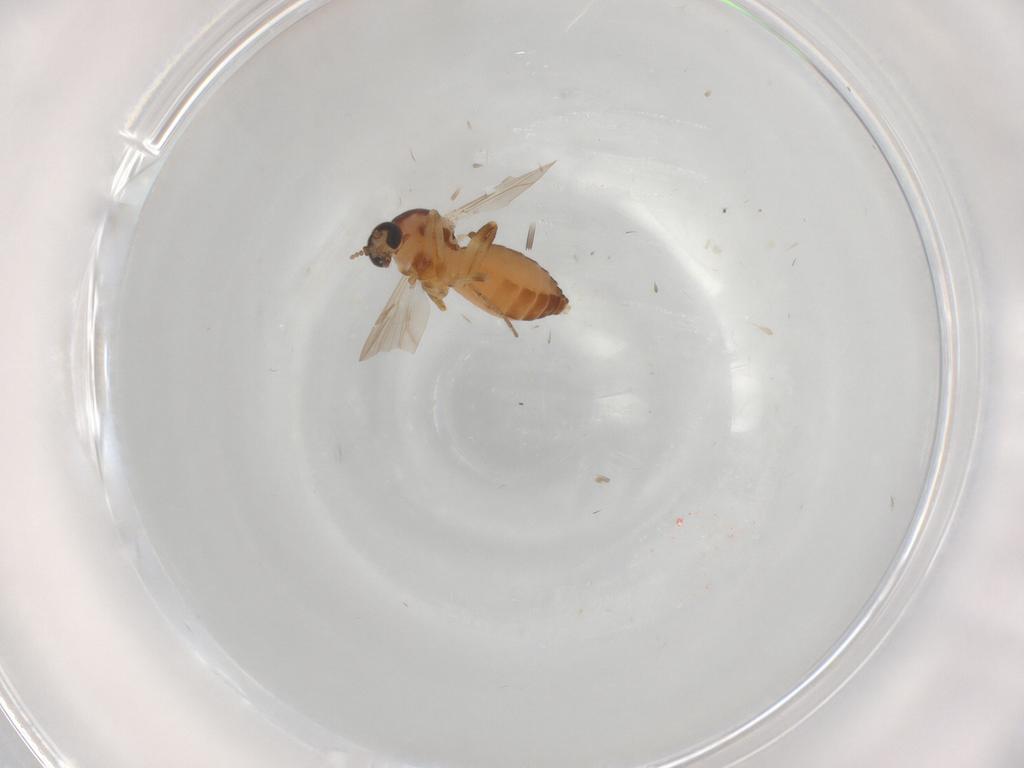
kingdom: Animalia
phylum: Arthropoda
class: Insecta
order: Diptera
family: Ceratopogonidae
